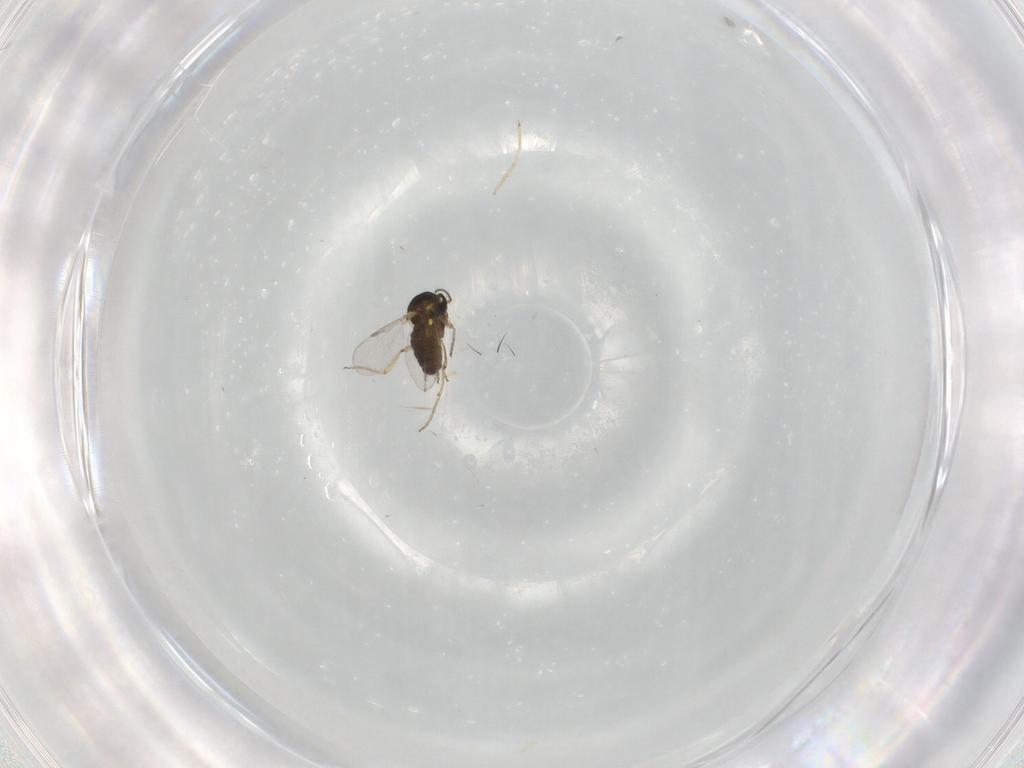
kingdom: Animalia
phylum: Arthropoda
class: Insecta
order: Diptera
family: Ceratopogonidae
